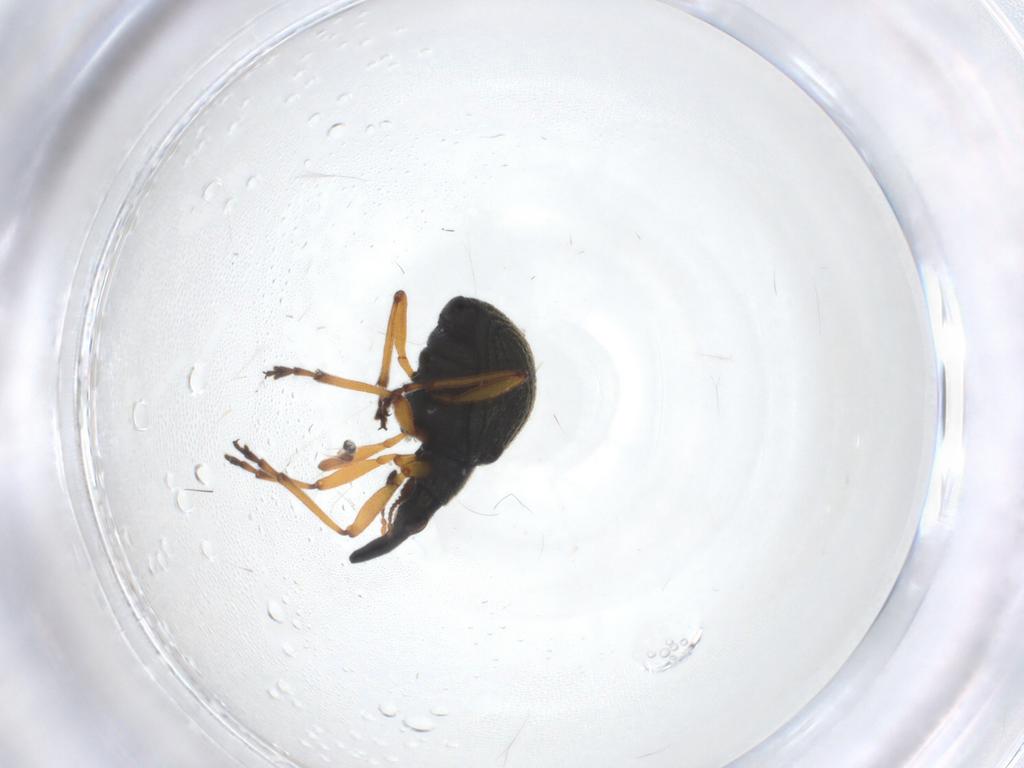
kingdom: Animalia
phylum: Arthropoda
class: Insecta
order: Coleoptera
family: Brentidae
